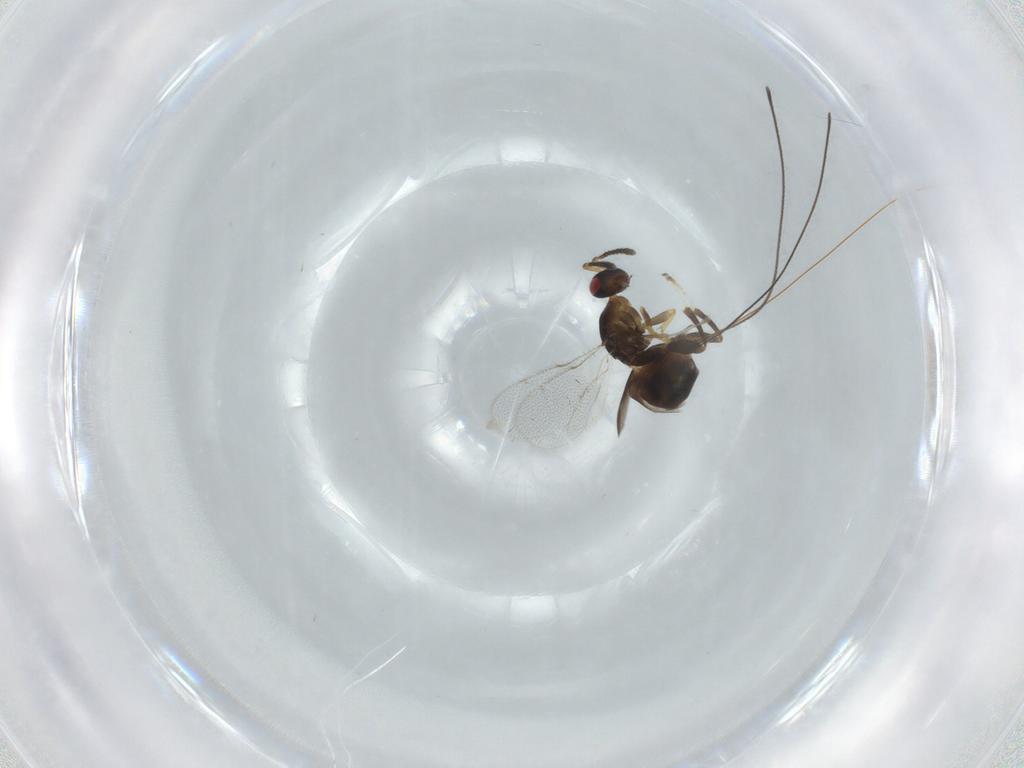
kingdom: Animalia
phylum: Arthropoda
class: Insecta
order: Hymenoptera
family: Torymidae
